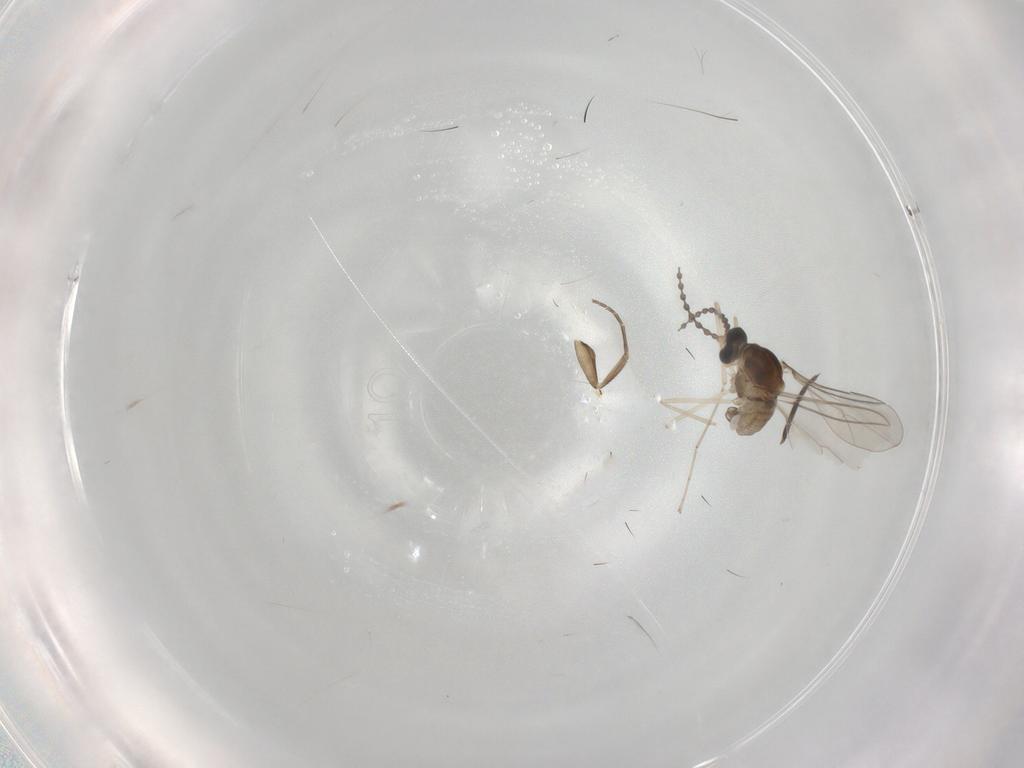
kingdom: Animalia
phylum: Arthropoda
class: Insecta
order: Diptera
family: Cecidomyiidae
